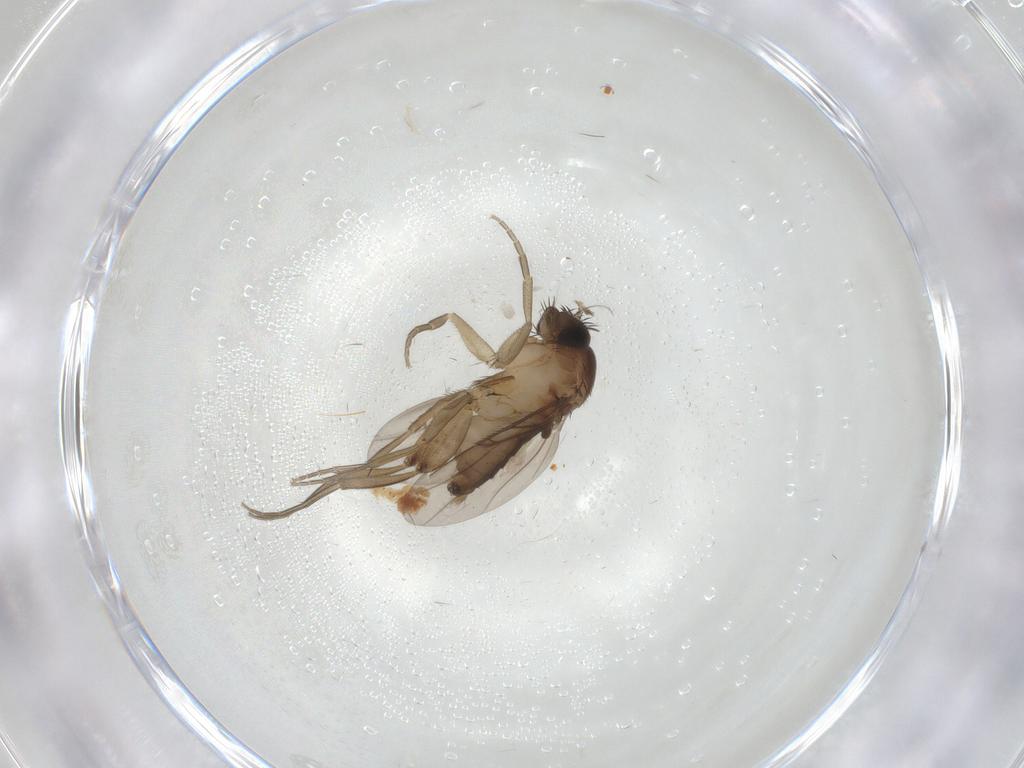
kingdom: Animalia
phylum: Arthropoda
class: Insecta
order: Diptera
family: Phoridae
